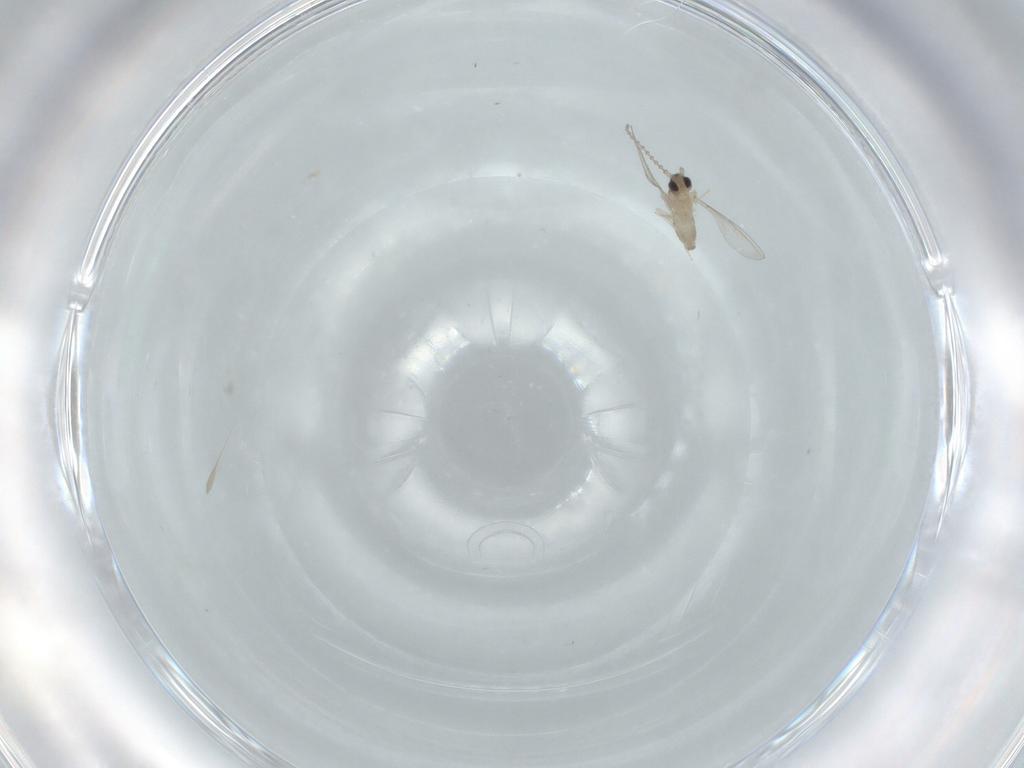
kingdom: Animalia
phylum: Arthropoda
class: Insecta
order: Diptera
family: Cecidomyiidae
